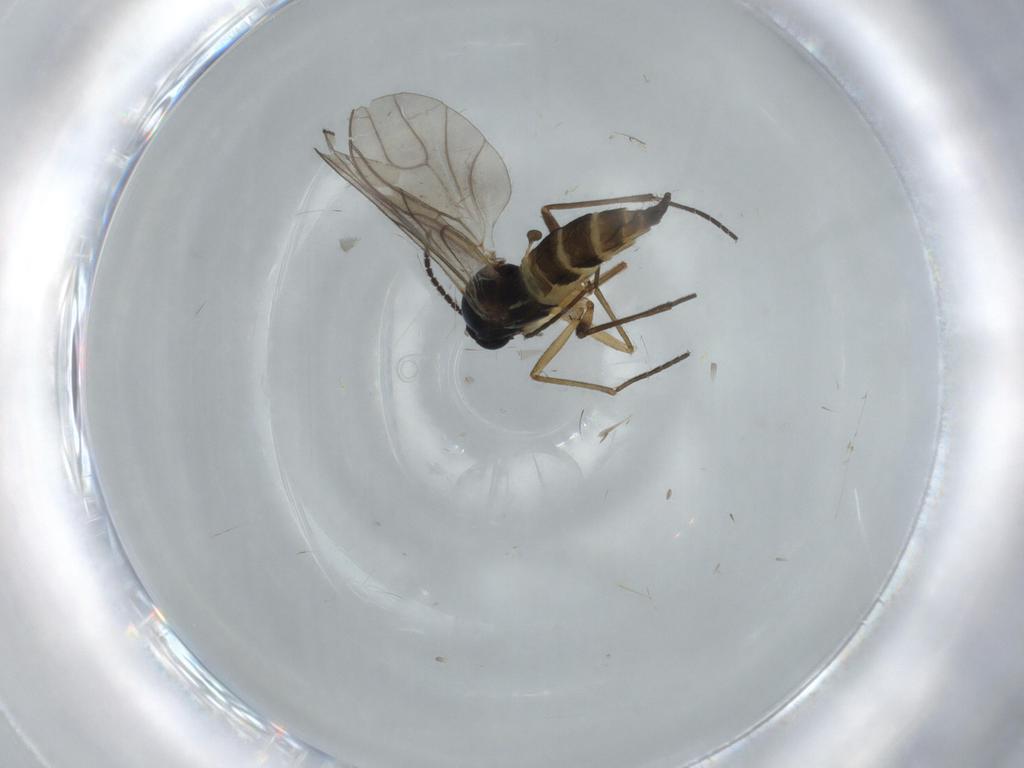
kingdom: Animalia
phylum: Arthropoda
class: Insecta
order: Diptera
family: Sciaridae
